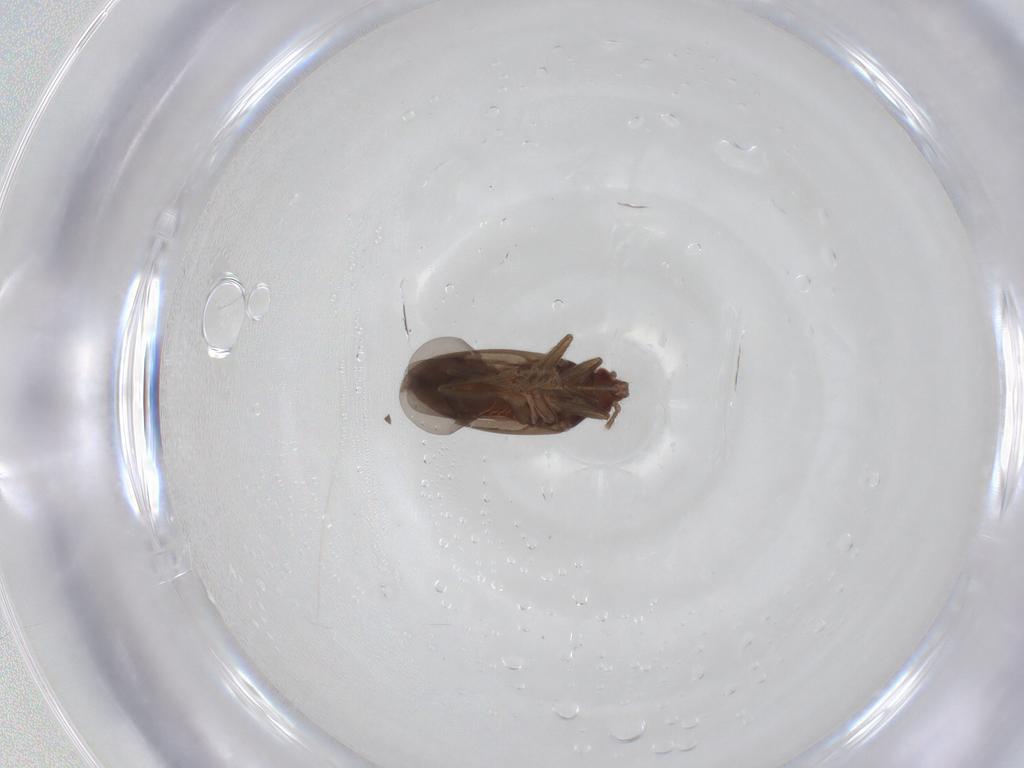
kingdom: Animalia
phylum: Arthropoda
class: Insecta
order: Hemiptera
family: Ceratocombidae
